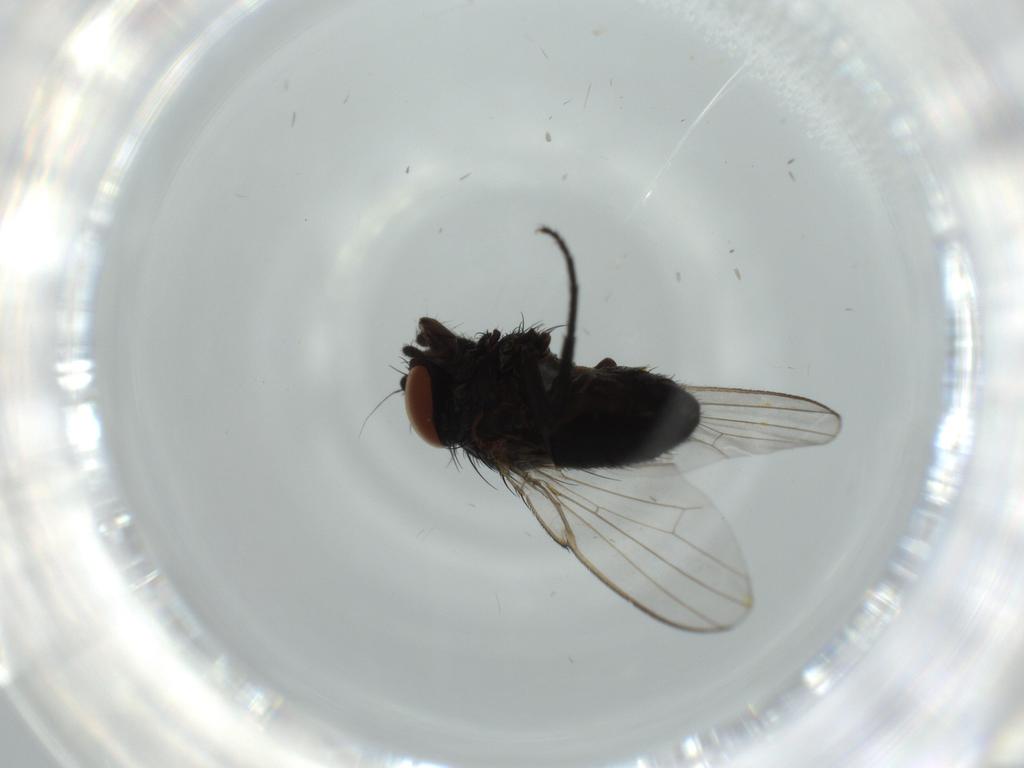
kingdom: Animalia
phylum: Arthropoda
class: Insecta
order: Diptera
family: Milichiidae
